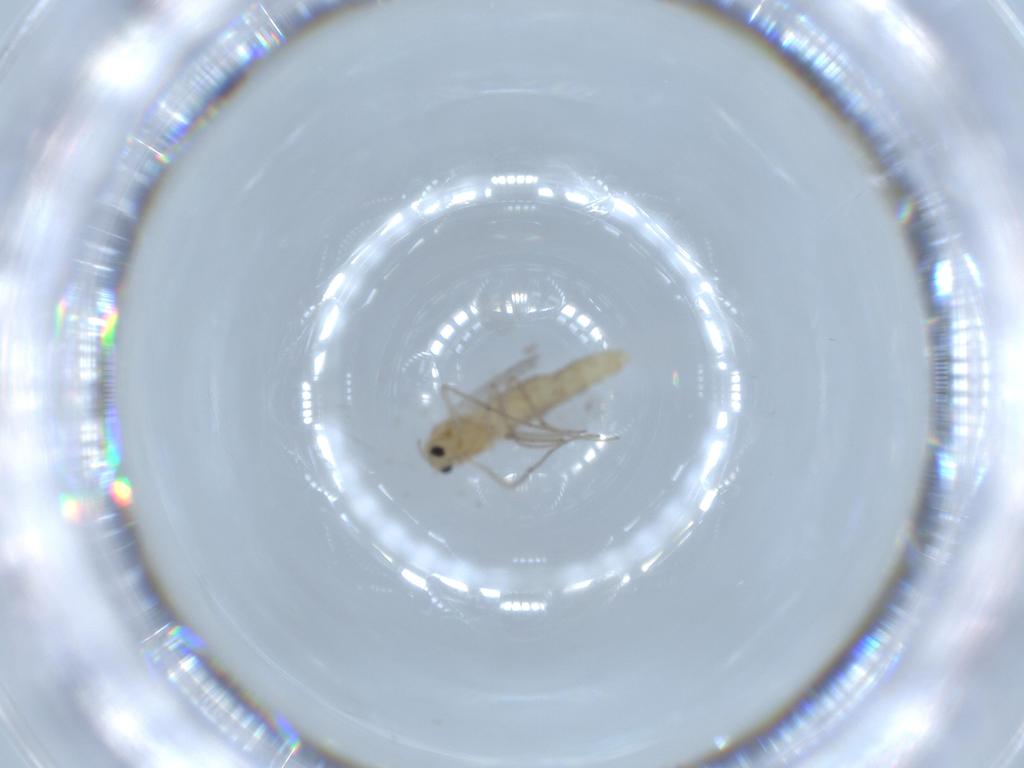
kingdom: Animalia
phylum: Arthropoda
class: Insecta
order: Diptera
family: Chironomidae
